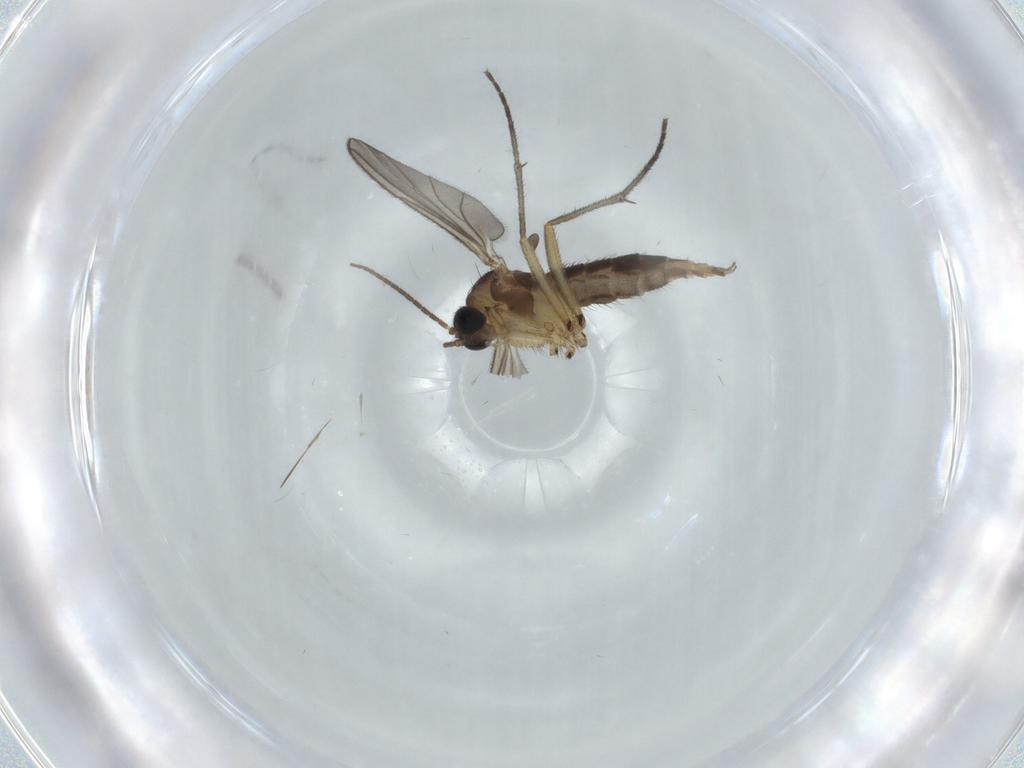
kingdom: Animalia
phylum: Arthropoda
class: Insecta
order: Diptera
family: Sciaridae
